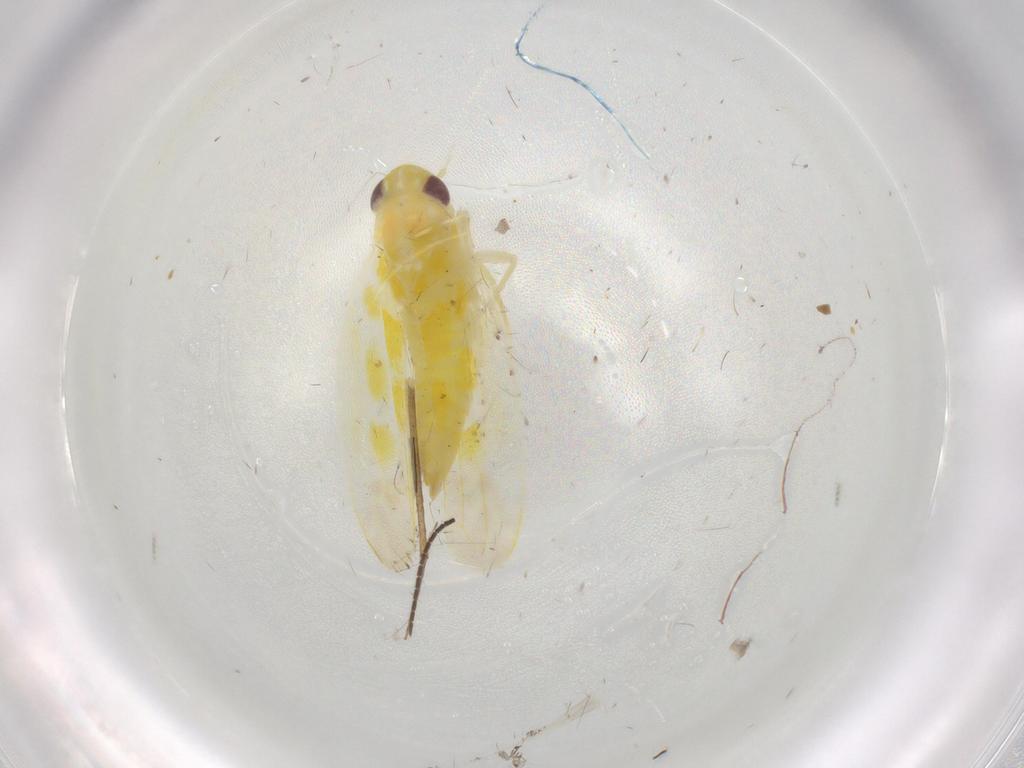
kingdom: Animalia
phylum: Arthropoda
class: Insecta
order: Hemiptera
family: Cicadellidae
